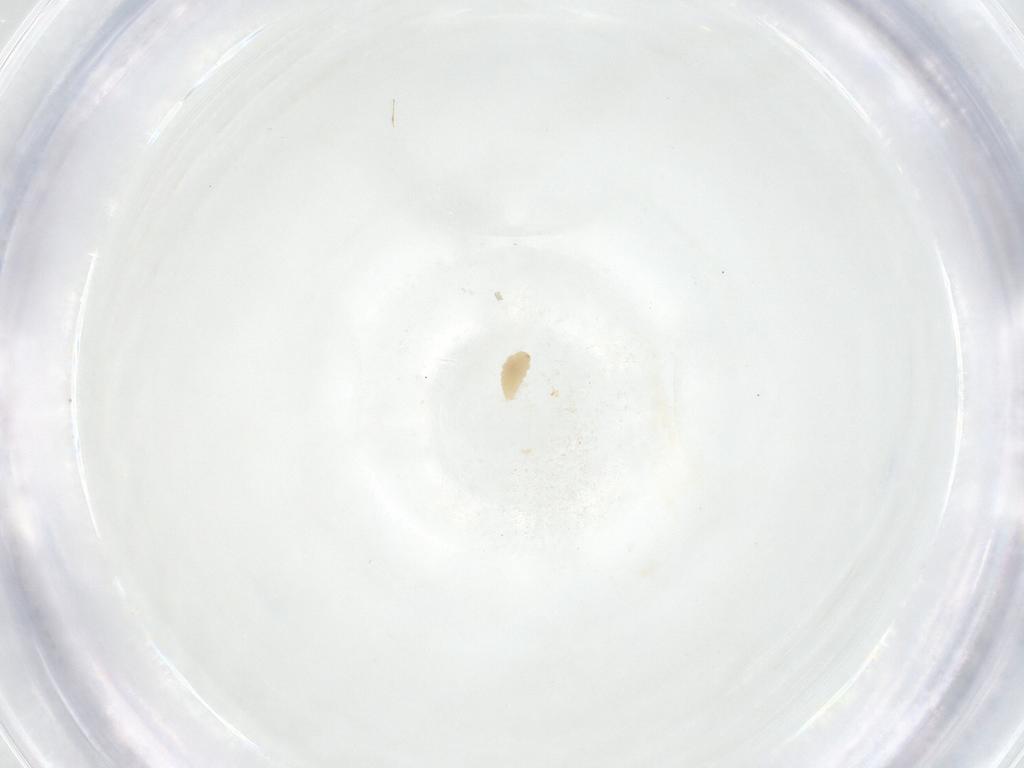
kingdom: Animalia
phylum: Arthropoda
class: Insecta
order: Diptera
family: Fergusoninidae
